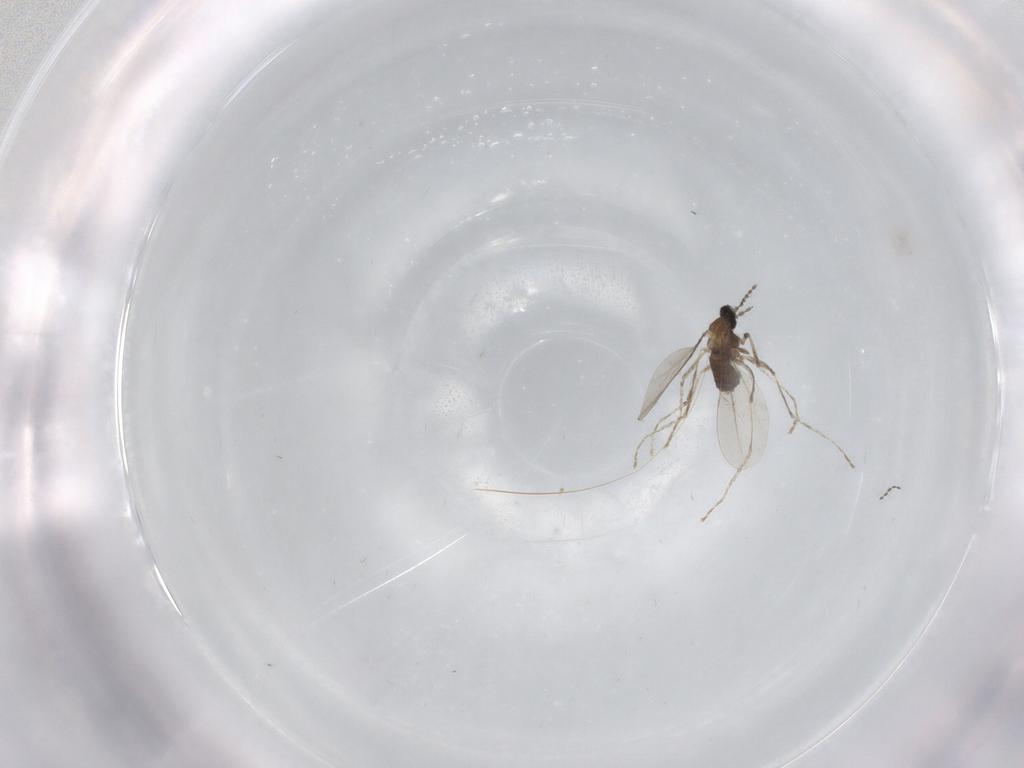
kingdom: Animalia
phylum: Arthropoda
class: Insecta
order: Diptera
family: Cecidomyiidae
